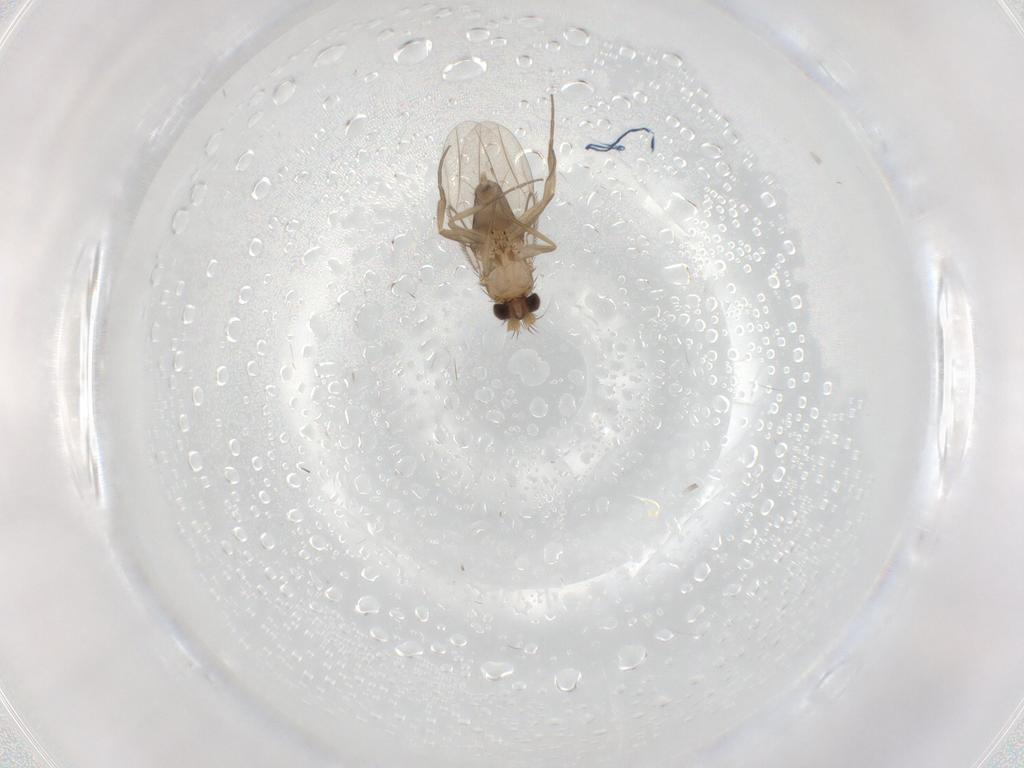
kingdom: Animalia
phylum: Arthropoda
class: Insecta
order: Diptera
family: Phoridae
